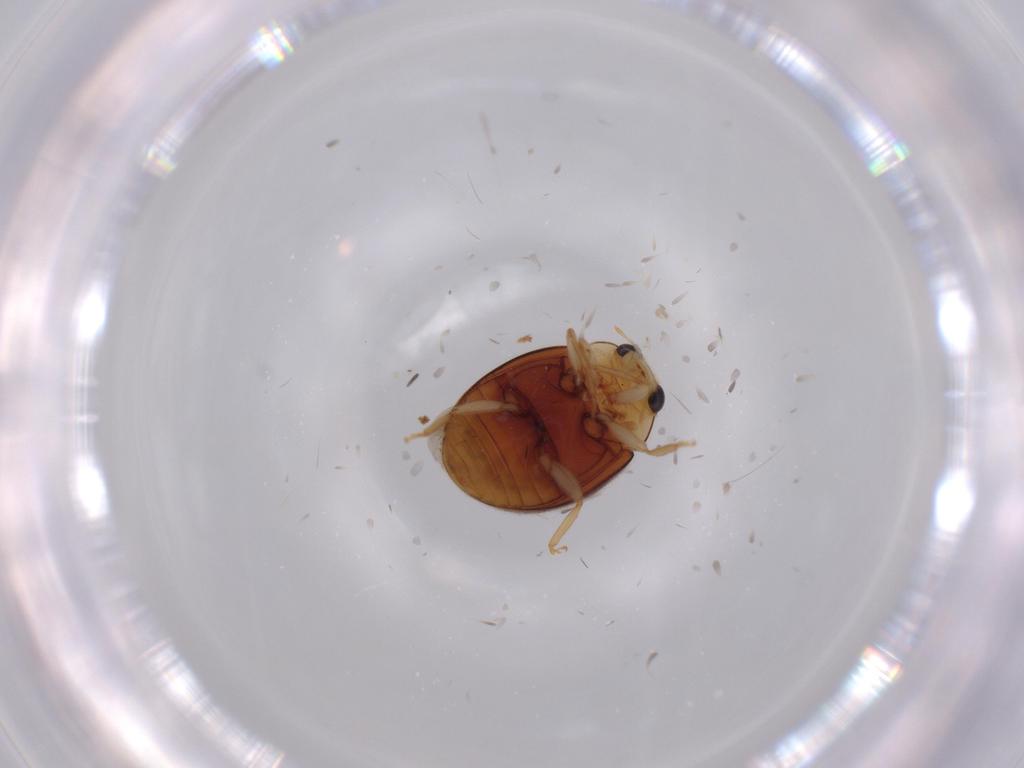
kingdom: Animalia
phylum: Arthropoda
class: Insecta
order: Coleoptera
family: Coccinellidae
